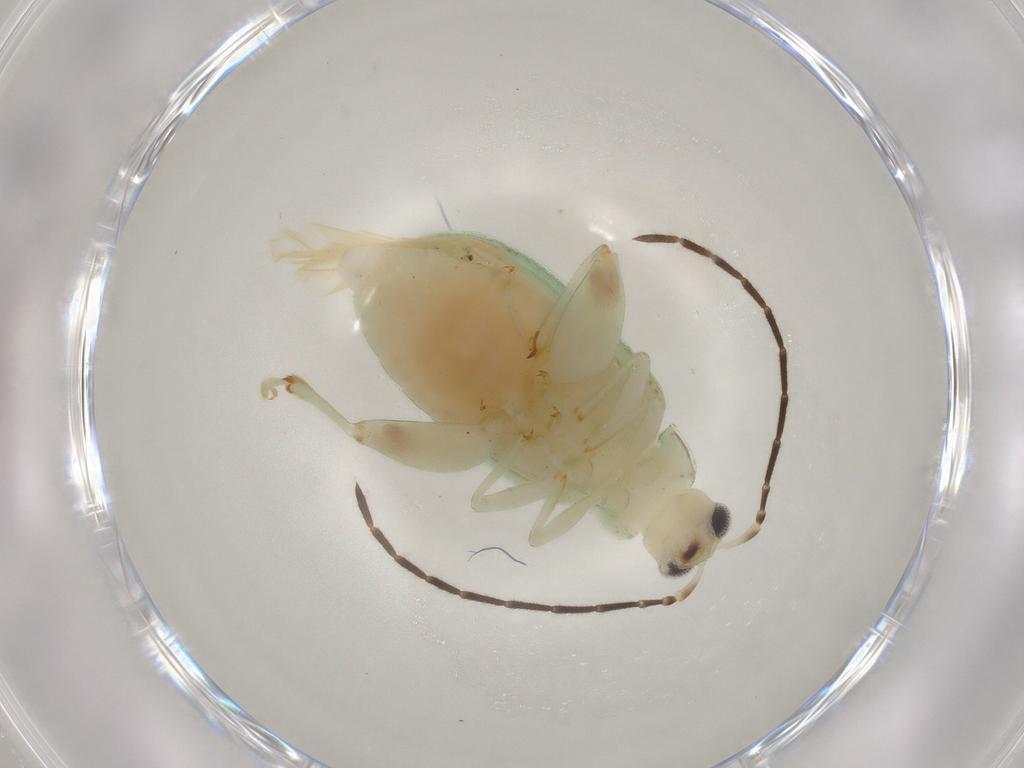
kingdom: Animalia
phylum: Arthropoda
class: Insecta
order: Coleoptera
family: Chrysomelidae
